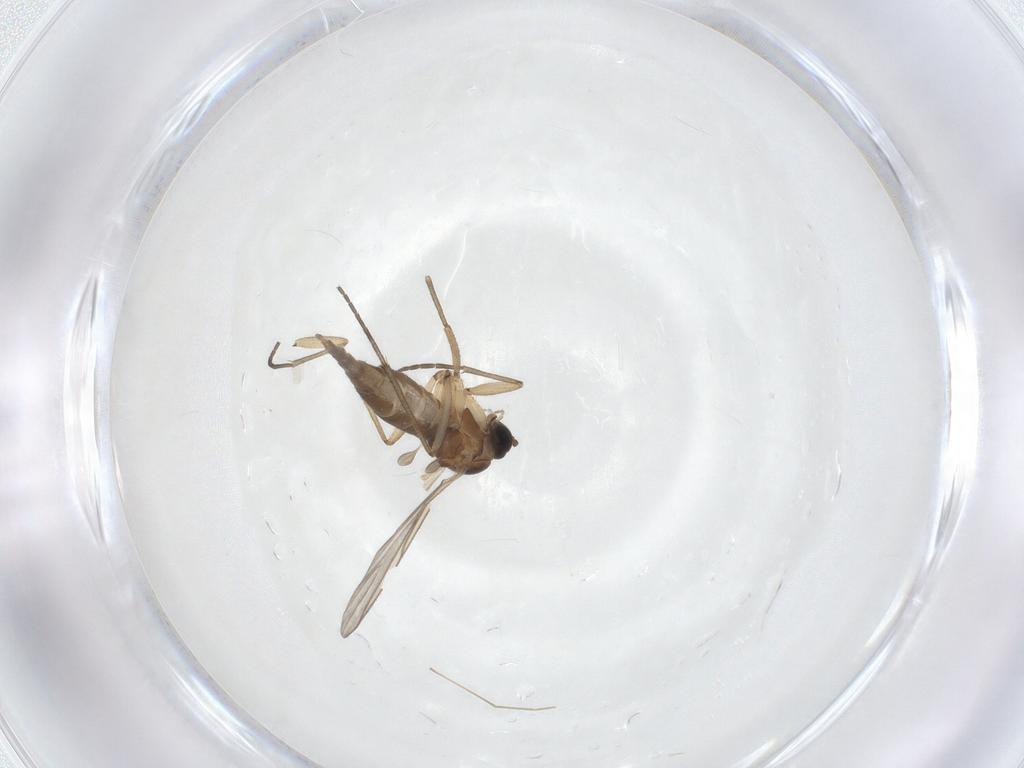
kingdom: Animalia
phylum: Arthropoda
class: Insecta
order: Diptera
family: Sciaridae
